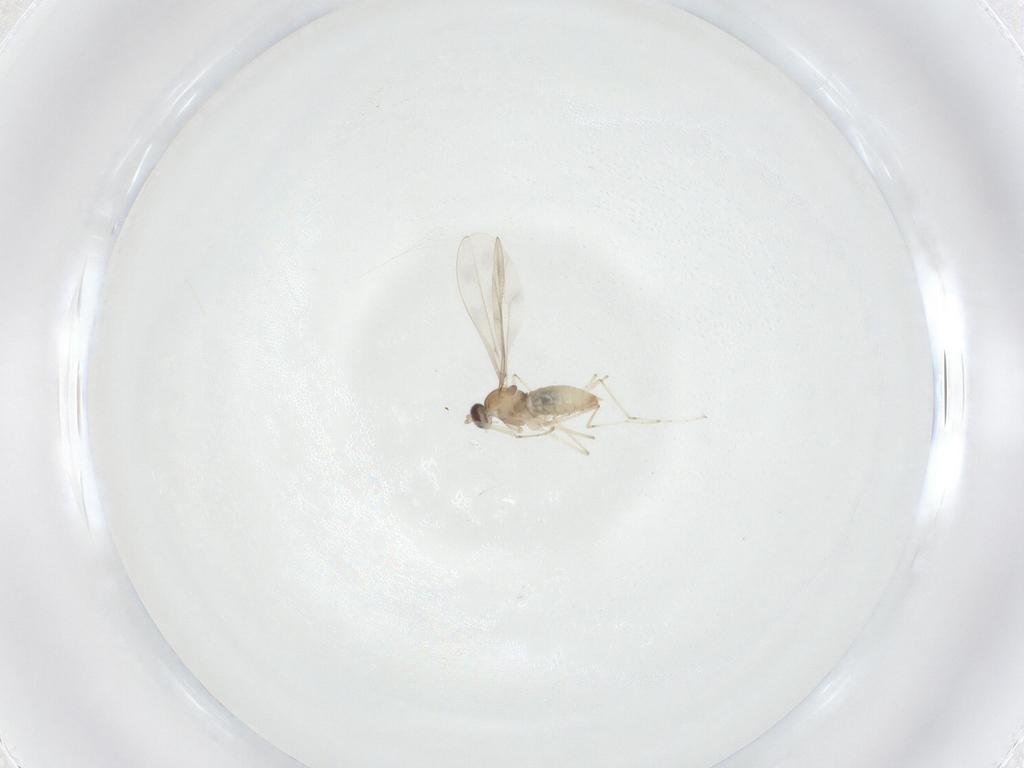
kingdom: Animalia
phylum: Arthropoda
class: Insecta
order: Diptera
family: Cecidomyiidae
